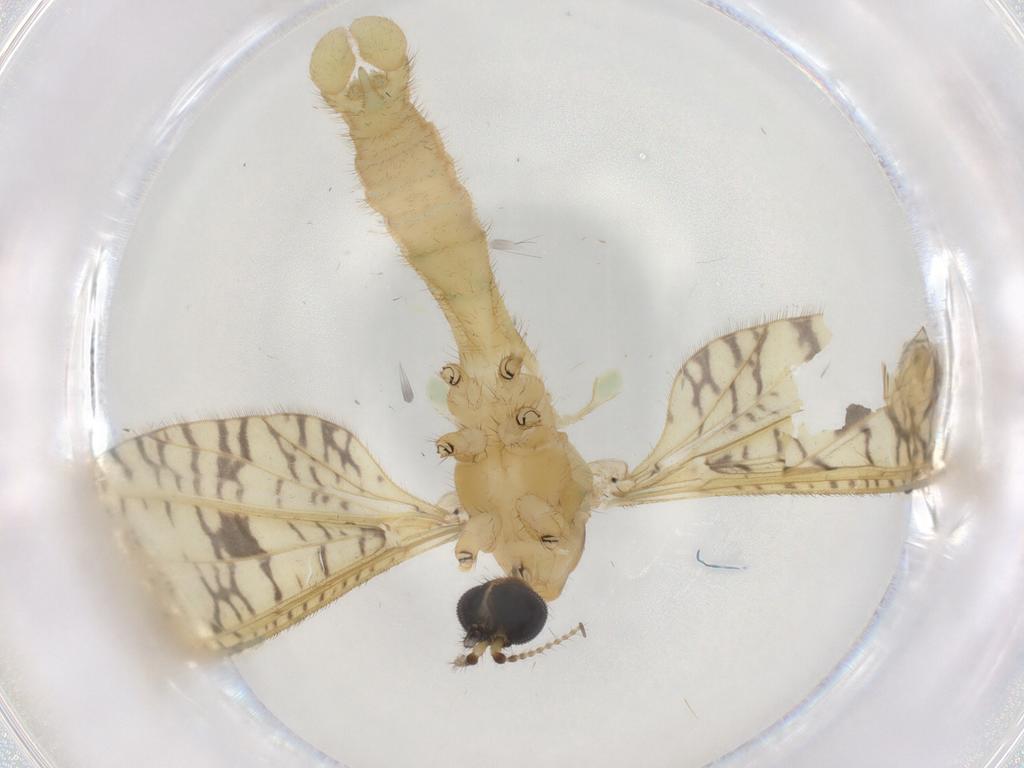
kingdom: Animalia
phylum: Arthropoda
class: Insecta
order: Diptera
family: Limoniidae
